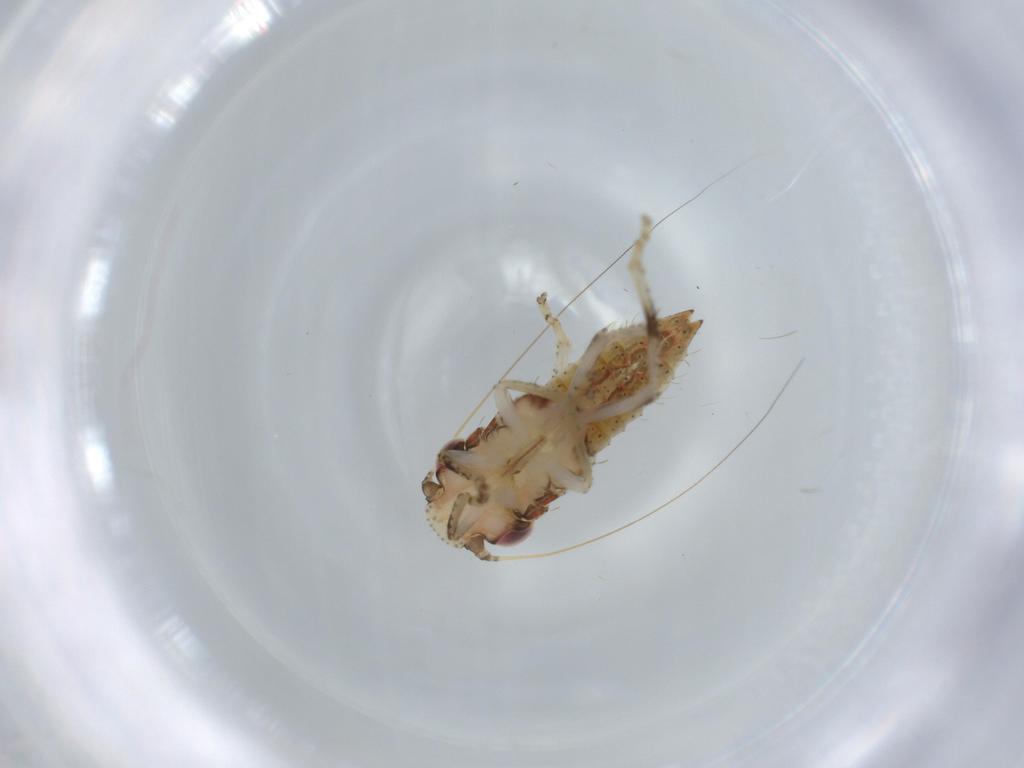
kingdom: Animalia
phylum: Arthropoda
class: Insecta
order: Hemiptera
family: Cicadellidae
